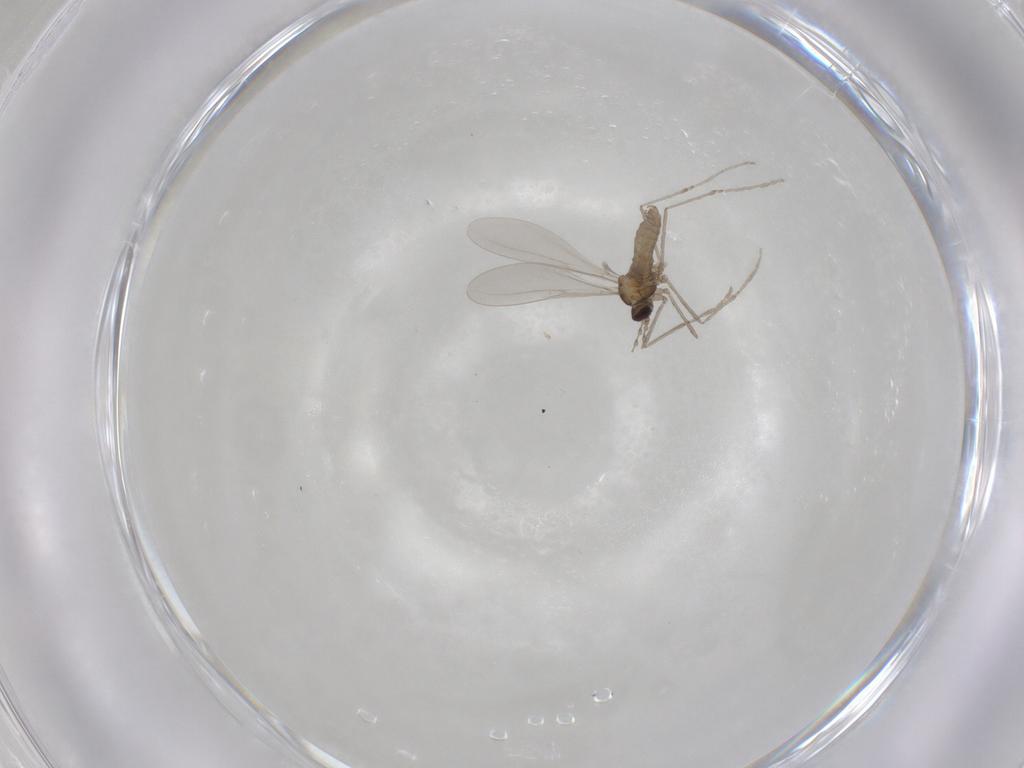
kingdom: Animalia
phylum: Arthropoda
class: Insecta
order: Diptera
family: Cecidomyiidae
